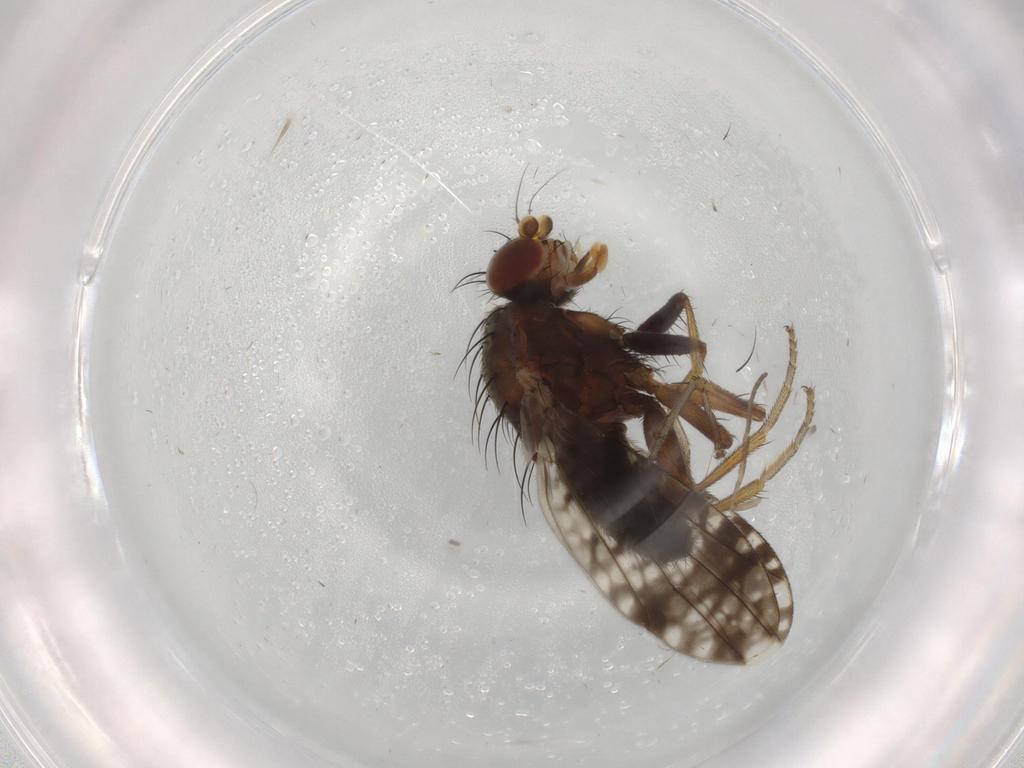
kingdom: Animalia
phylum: Arthropoda
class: Insecta
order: Diptera
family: Tephritidae
